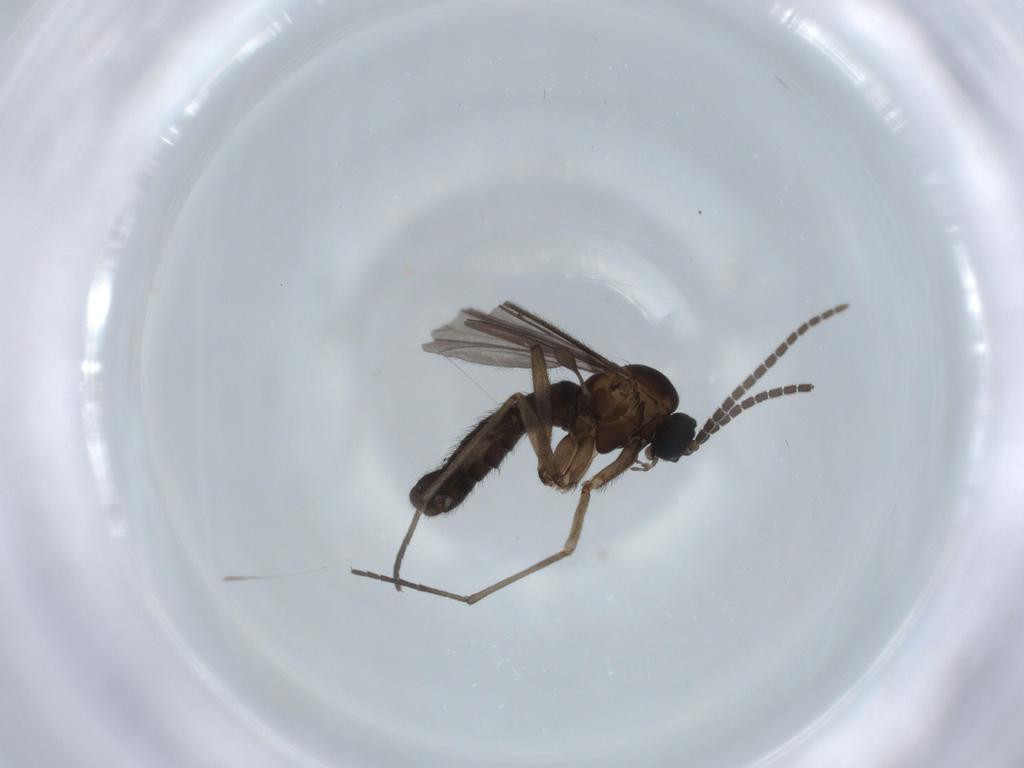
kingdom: Animalia
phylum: Arthropoda
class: Insecta
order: Diptera
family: Sciaridae
